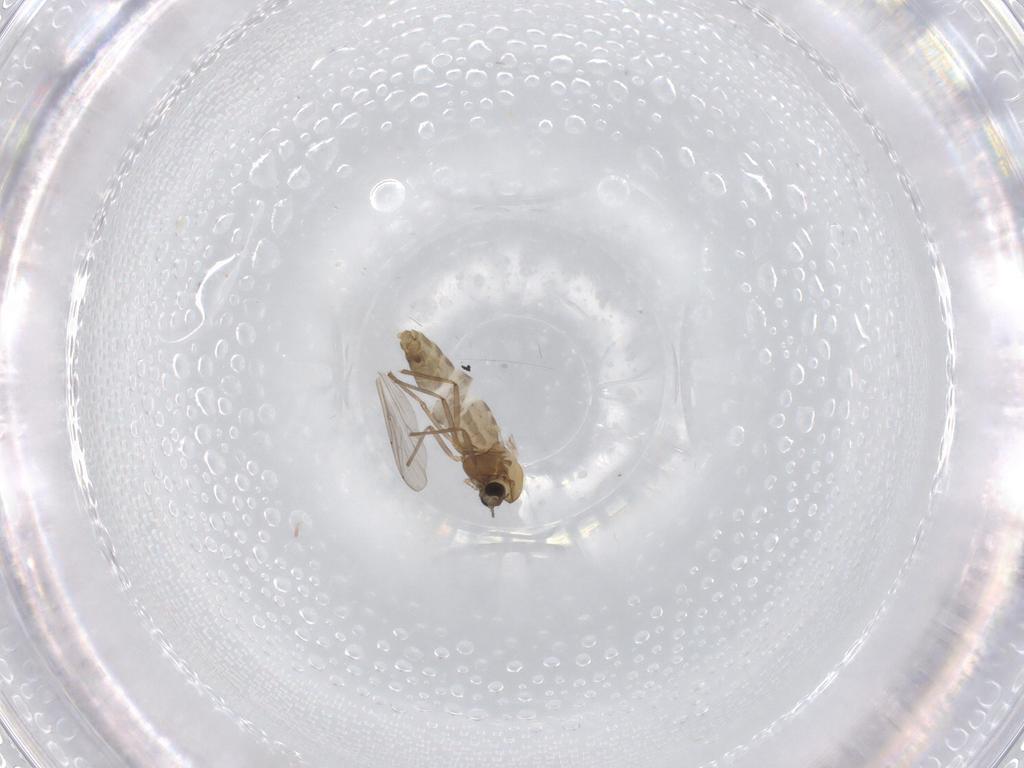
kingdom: Animalia
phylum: Arthropoda
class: Insecta
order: Diptera
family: Chironomidae
